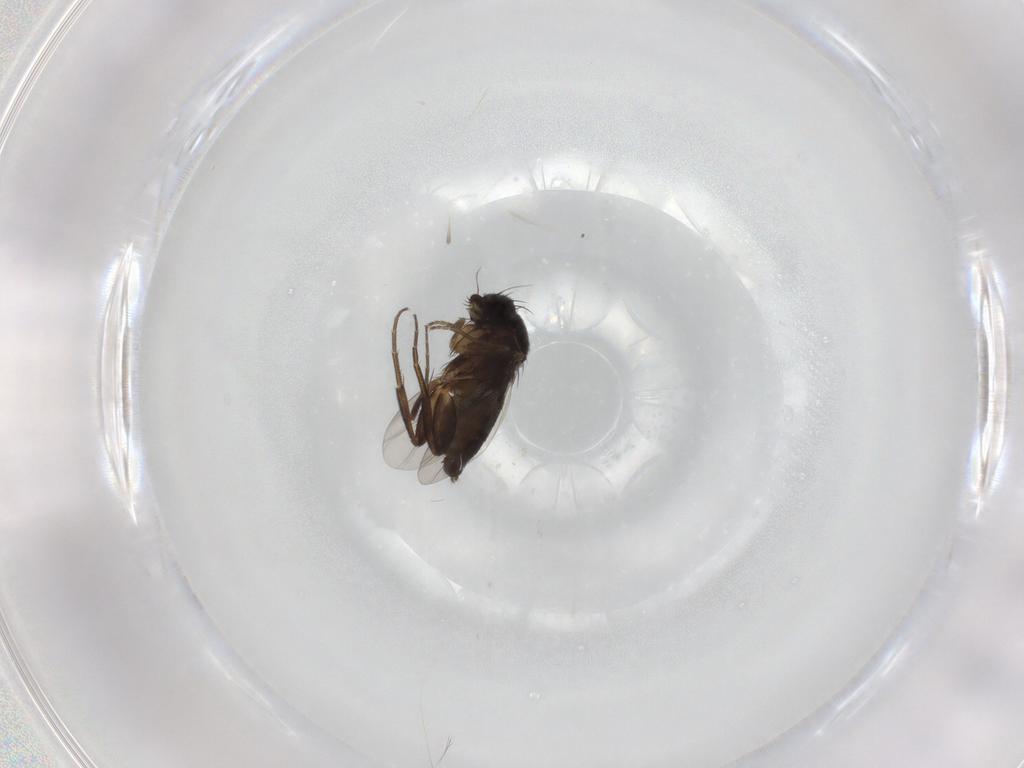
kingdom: Animalia
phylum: Arthropoda
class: Insecta
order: Diptera
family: Phoridae
